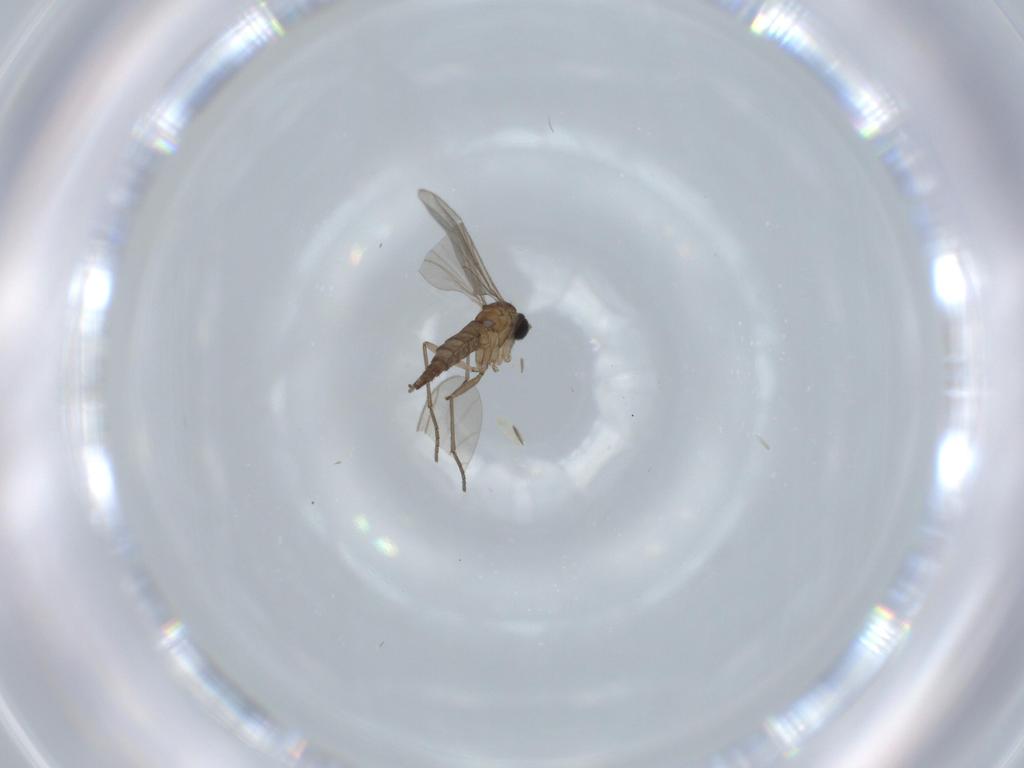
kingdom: Animalia
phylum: Arthropoda
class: Insecta
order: Diptera
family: Sciaridae
